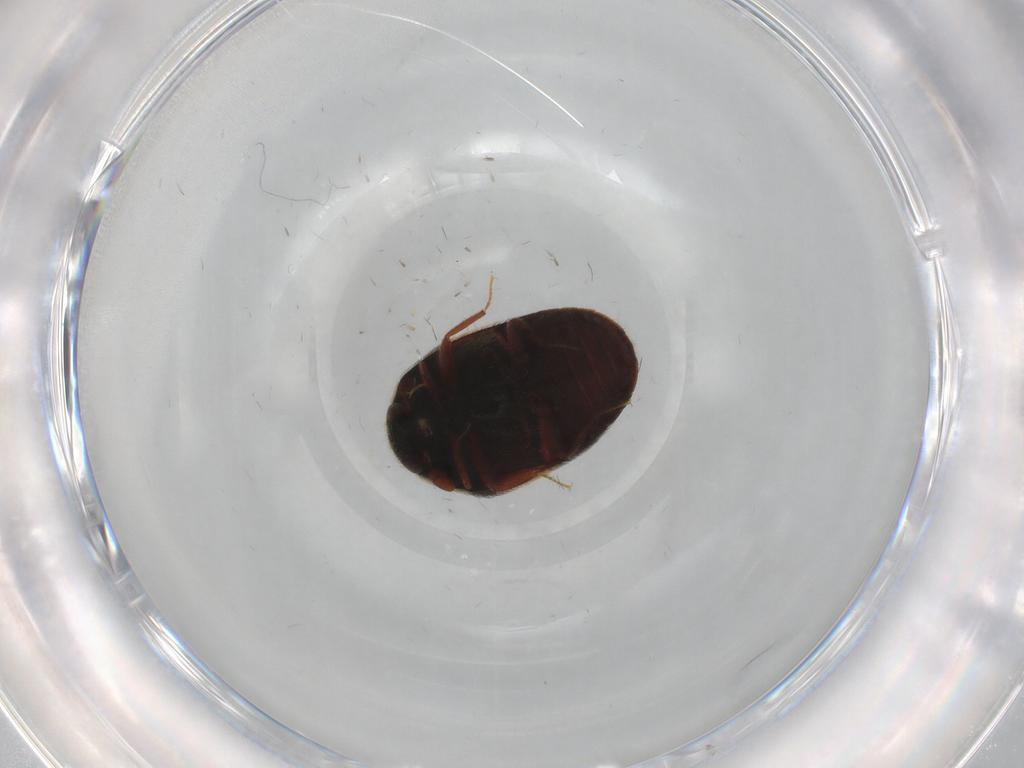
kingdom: Animalia
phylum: Arthropoda
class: Insecta
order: Coleoptera
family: Dermestidae
